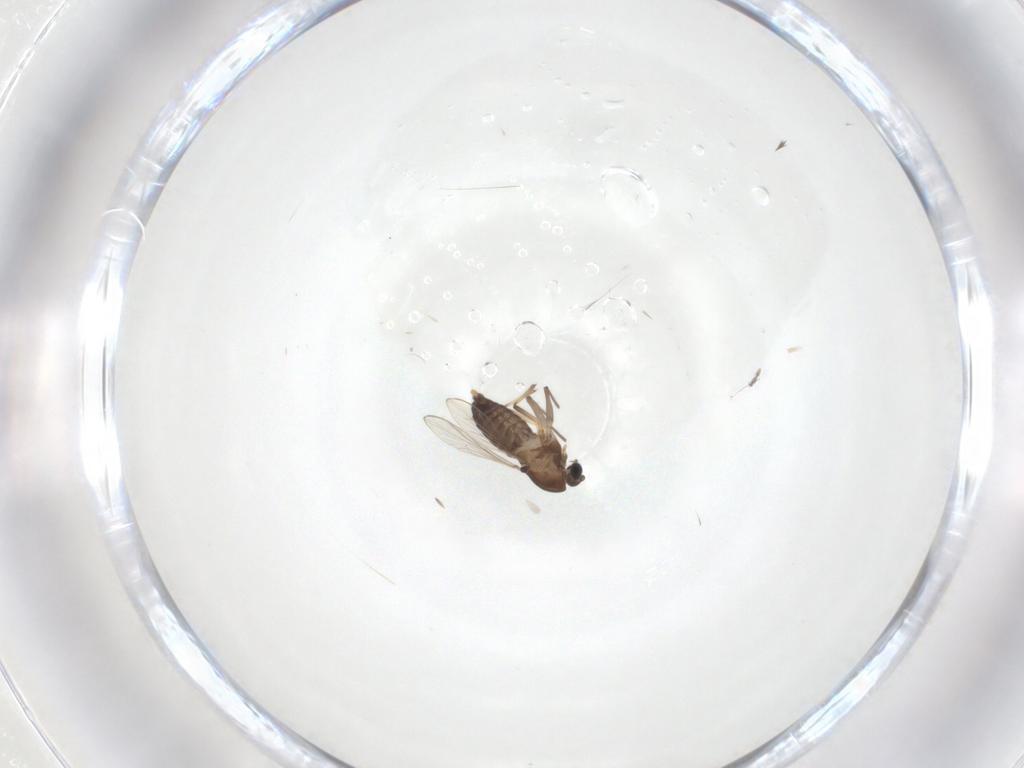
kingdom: Animalia
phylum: Arthropoda
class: Insecta
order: Diptera
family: Chironomidae
